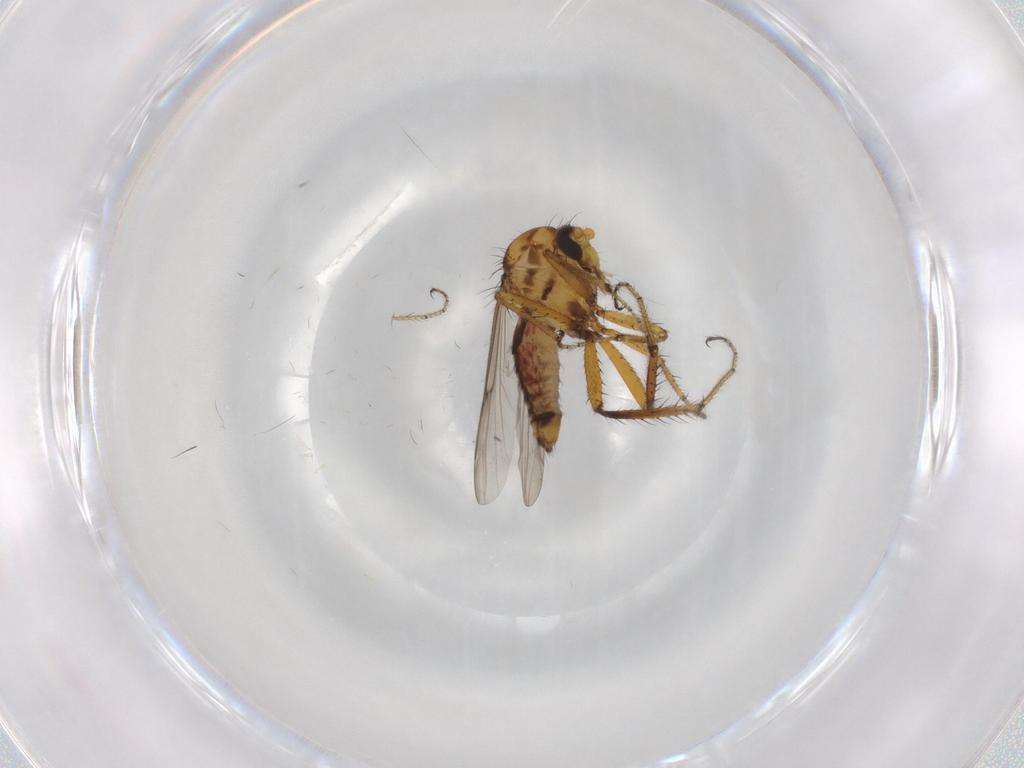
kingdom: Animalia
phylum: Arthropoda
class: Insecta
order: Diptera
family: Ceratopogonidae
